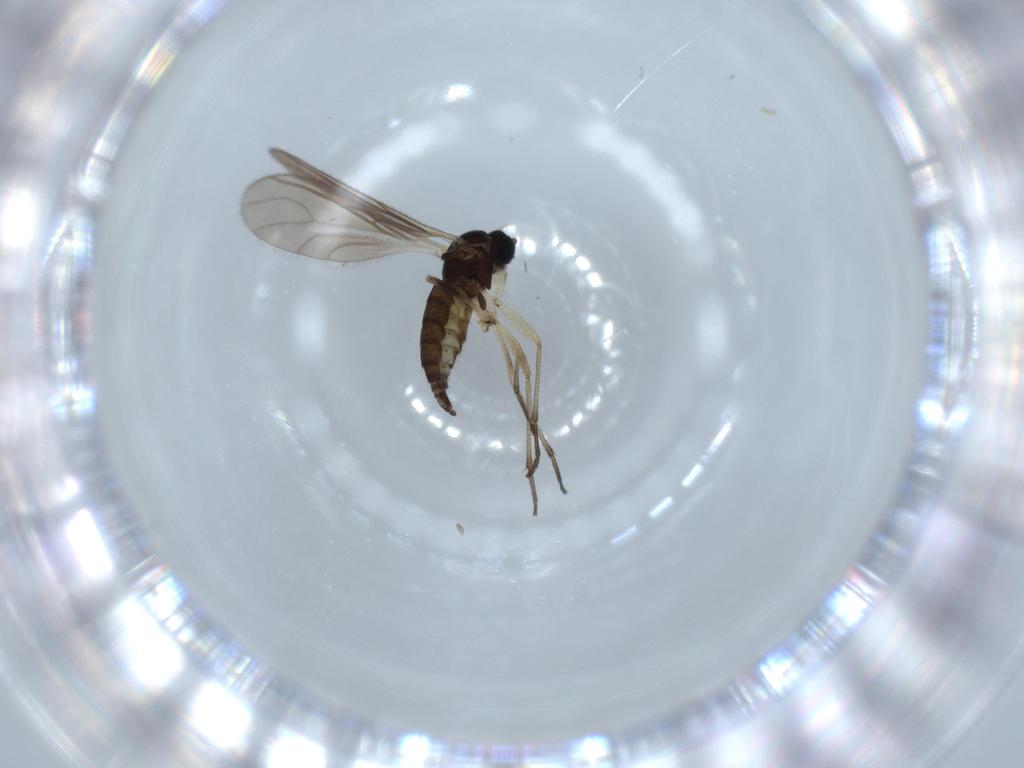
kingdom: Animalia
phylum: Arthropoda
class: Insecta
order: Diptera
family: Sciaridae
